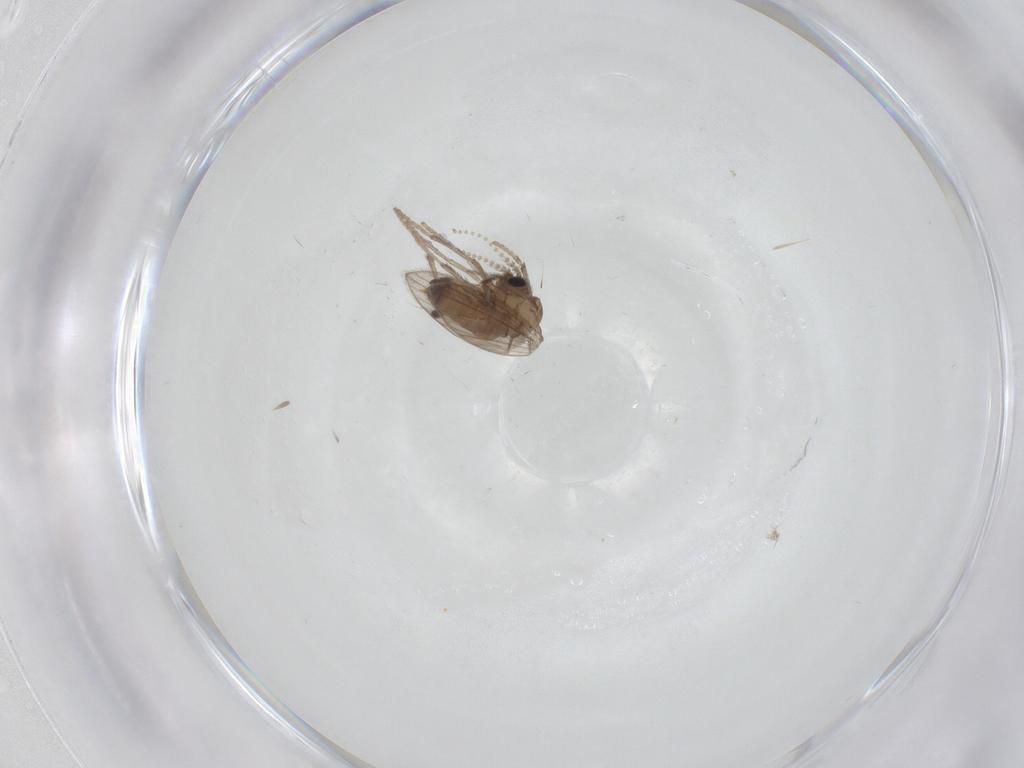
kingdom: Animalia
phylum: Arthropoda
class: Insecta
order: Diptera
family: Psychodidae
